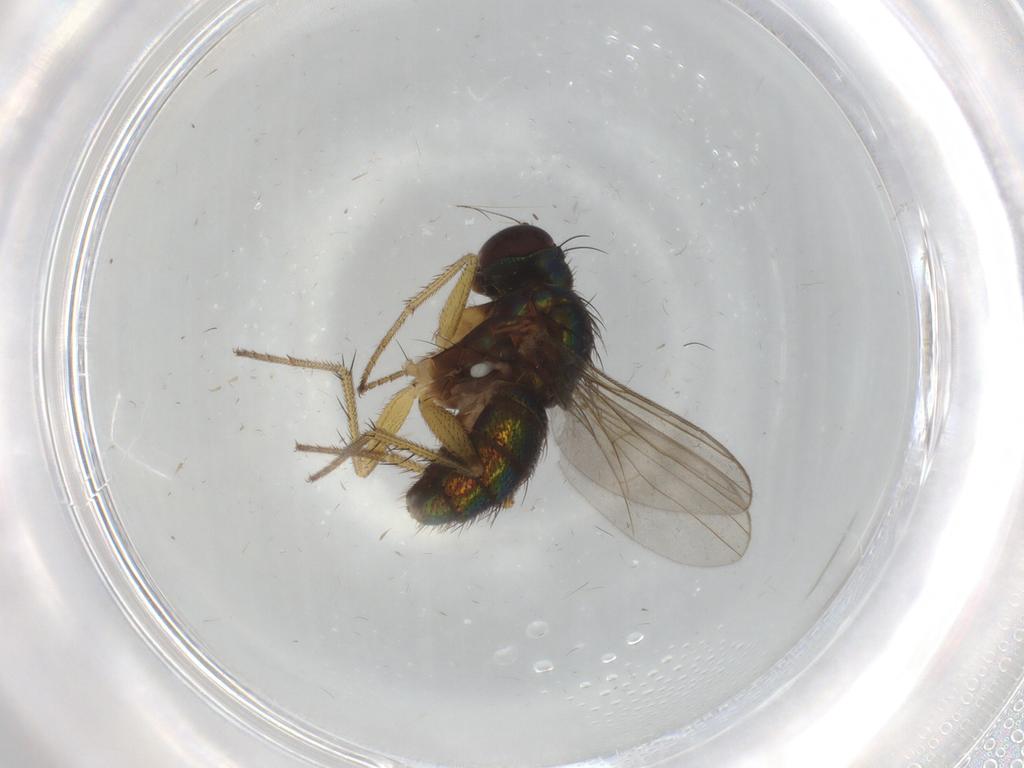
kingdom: Animalia
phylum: Arthropoda
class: Insecta
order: Diptera
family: Dolichopodidae
